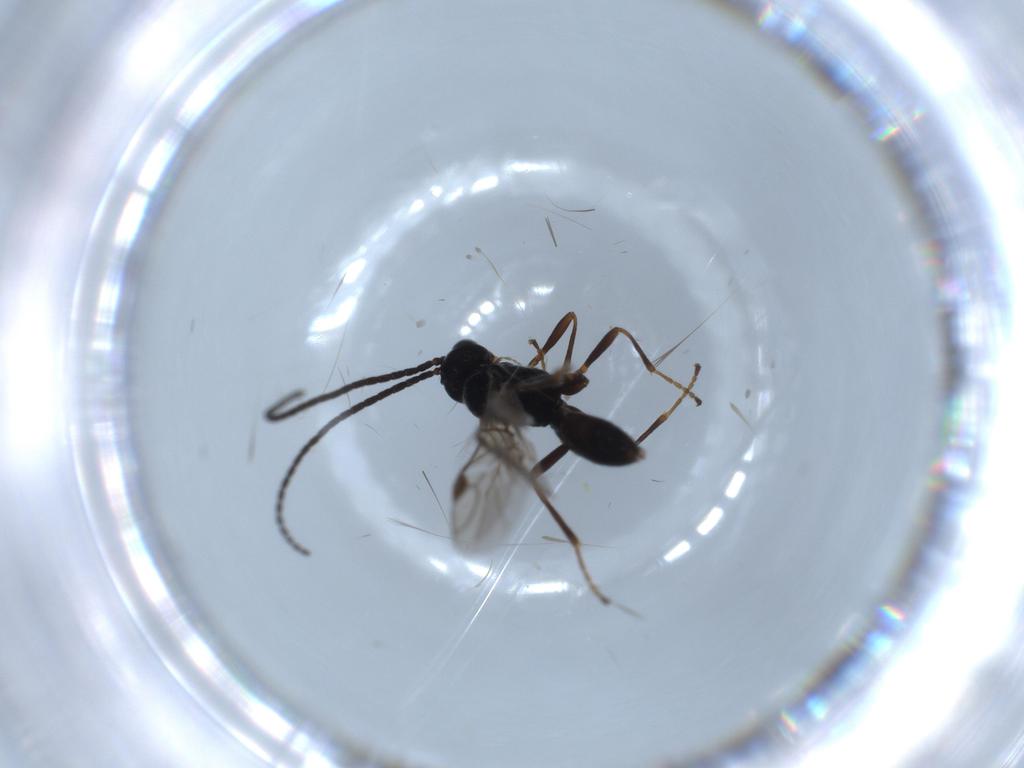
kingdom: Animalia
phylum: Arthropoda
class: Insecta
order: Hymenoptera
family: Braconidae
